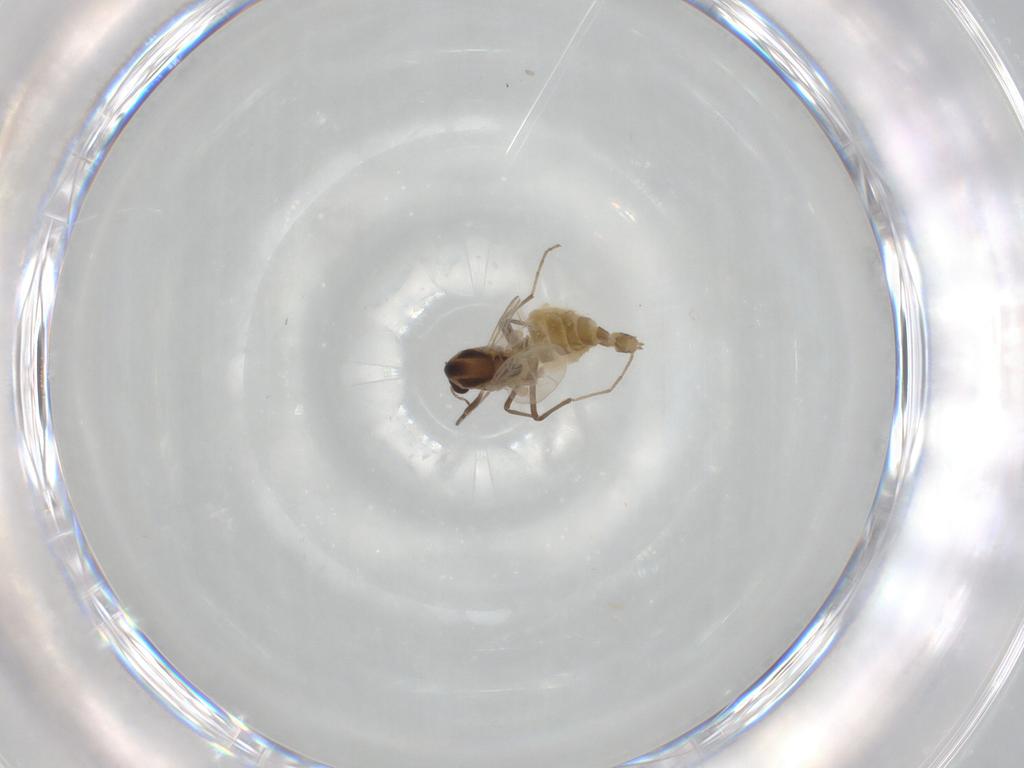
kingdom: Animalia
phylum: Arthropoda
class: Insecta
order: Diptera
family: Chironomidae
